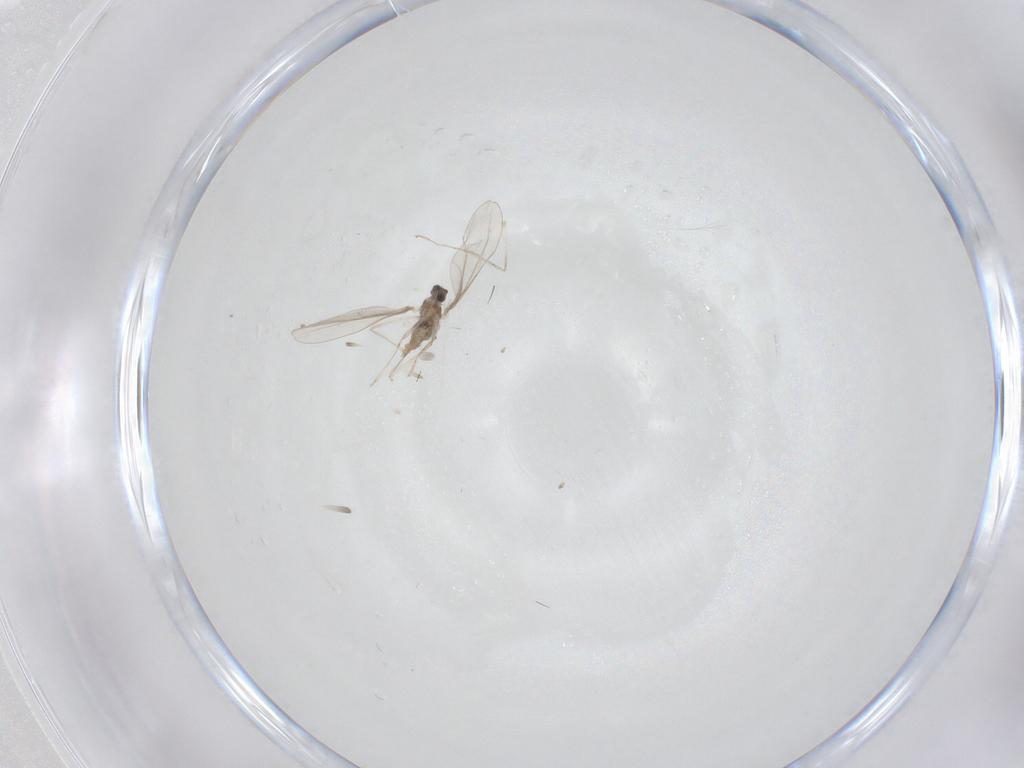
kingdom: Animalia
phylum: Arthropoda
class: Insecta
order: Diptera
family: Cecidomyiidae
